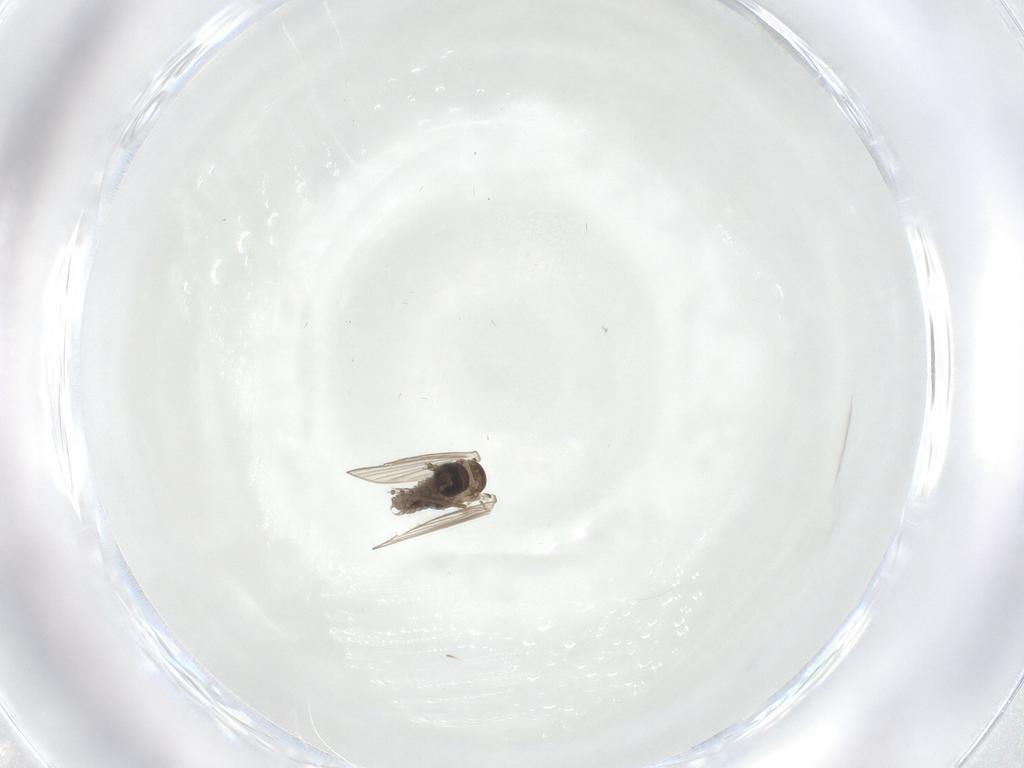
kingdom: Animalia
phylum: Arthropoda
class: Insecta
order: Diptera
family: Psychodidae
